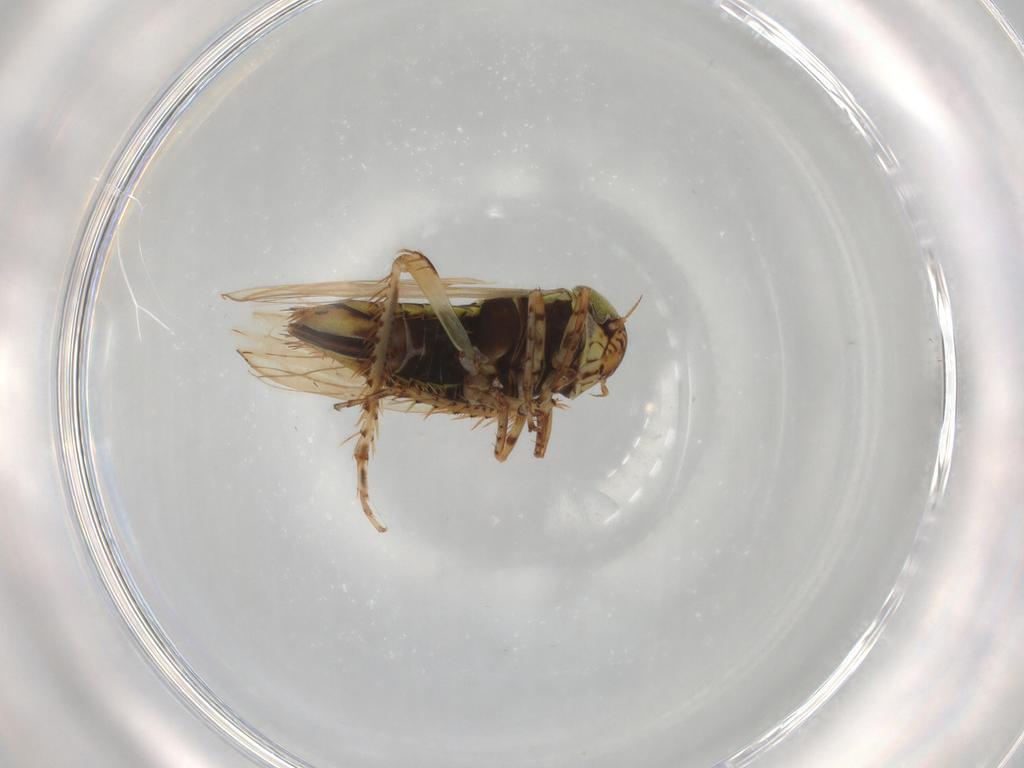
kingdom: Animalia
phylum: Arthropoda
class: Insecta
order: Hemiptera
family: Cicadellidae
